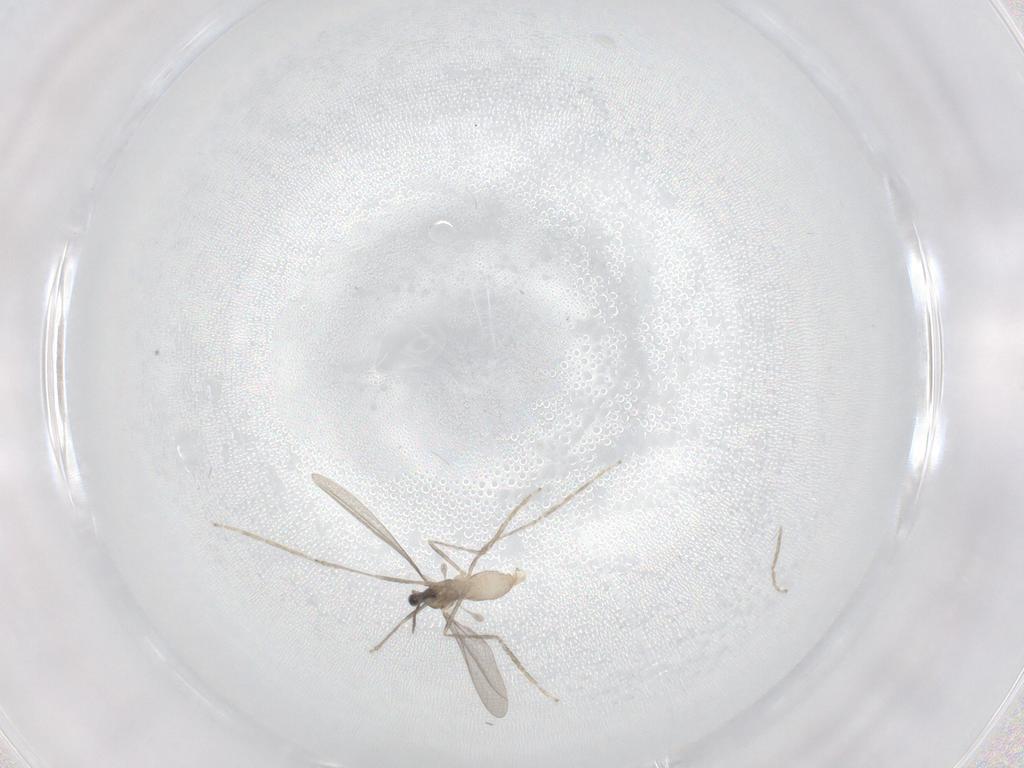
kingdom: Animalia
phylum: Arthropoda
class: Insecta
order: Diptera
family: Cecidomyiidae
